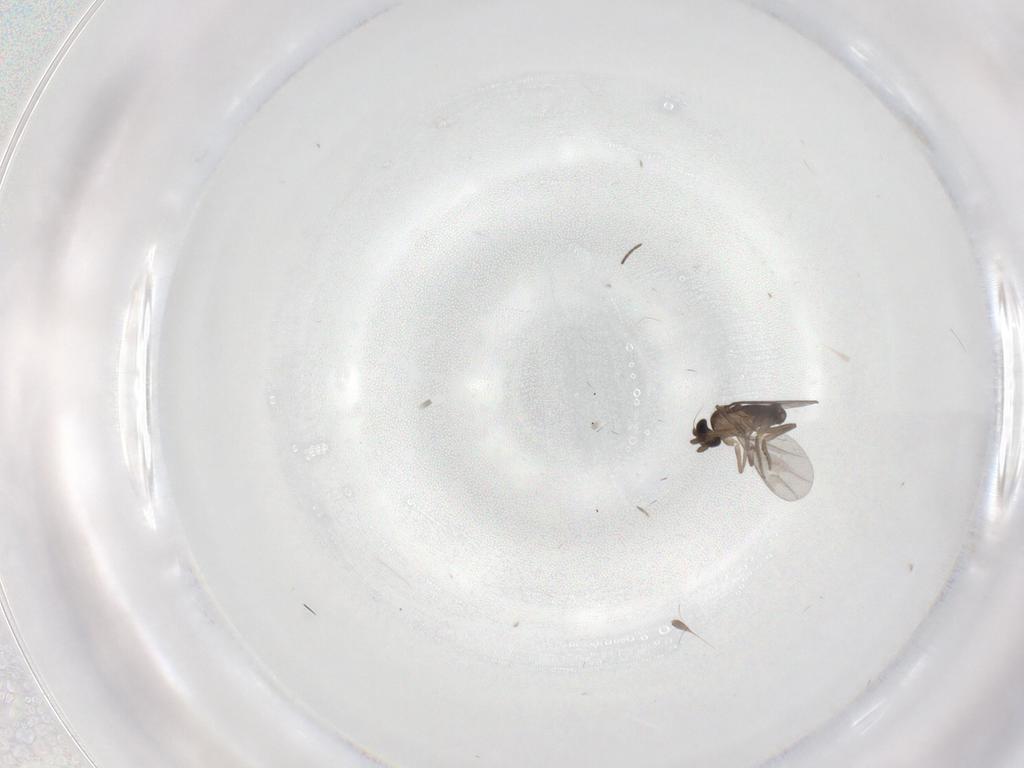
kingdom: Animalia
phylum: Arthropoda
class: Insecta
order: Diptera
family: Sciaridae
